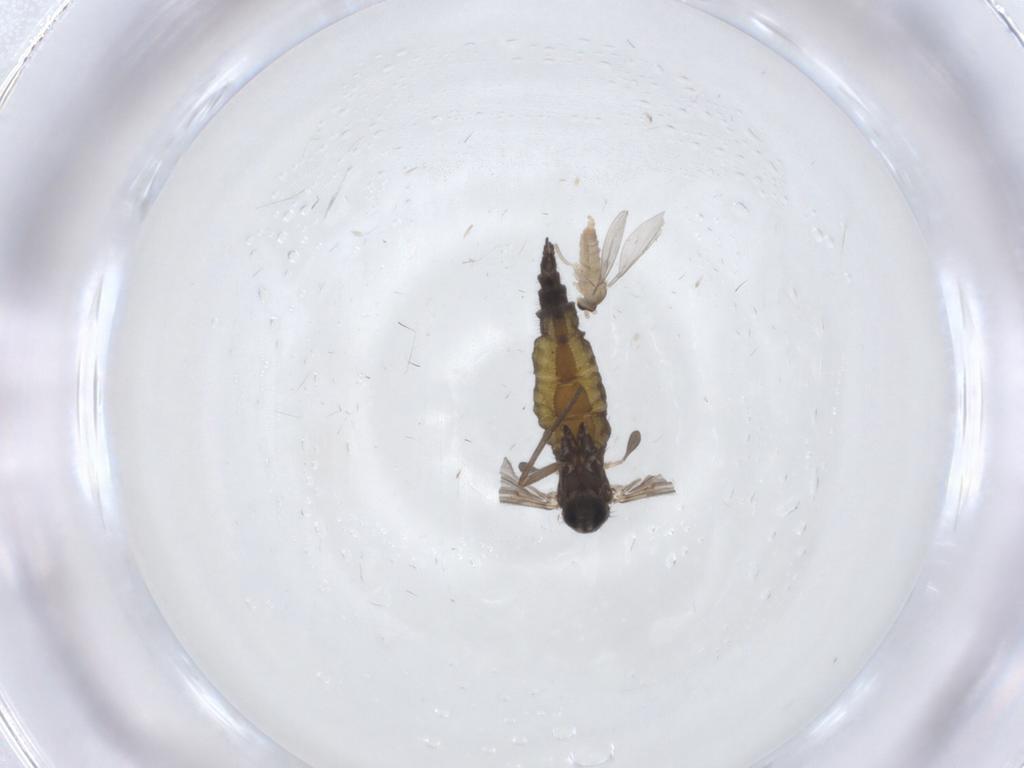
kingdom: Animalia
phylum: Arthropoda
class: Insecta
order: Diptera
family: Sciaridae
